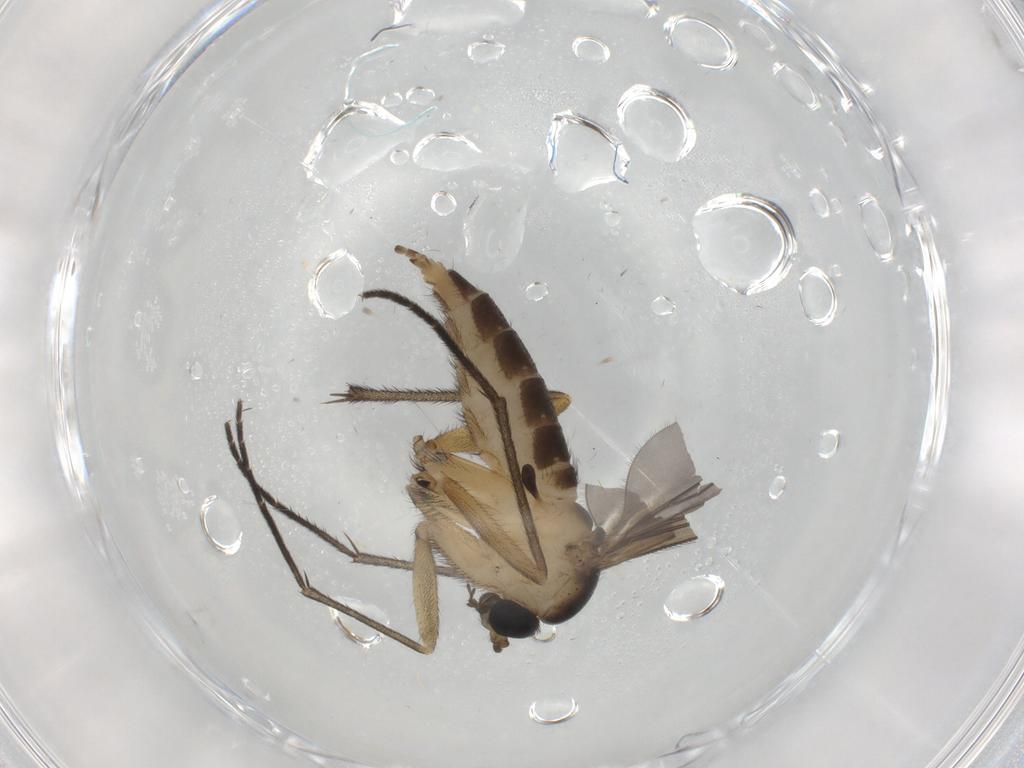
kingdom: Animalia
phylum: Arthropoda
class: Insecta
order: Diptera
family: Sciaridae
